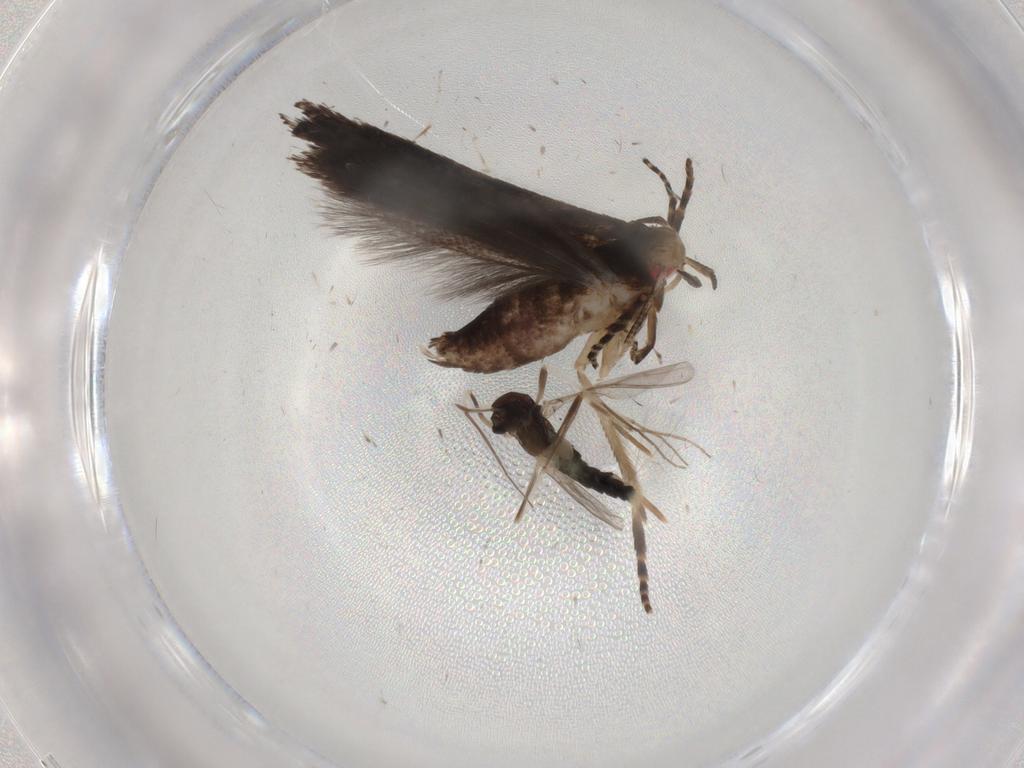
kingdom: Animalia
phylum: Arthropoda
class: Insecta
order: Lepidoptera
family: Gelechiidae
